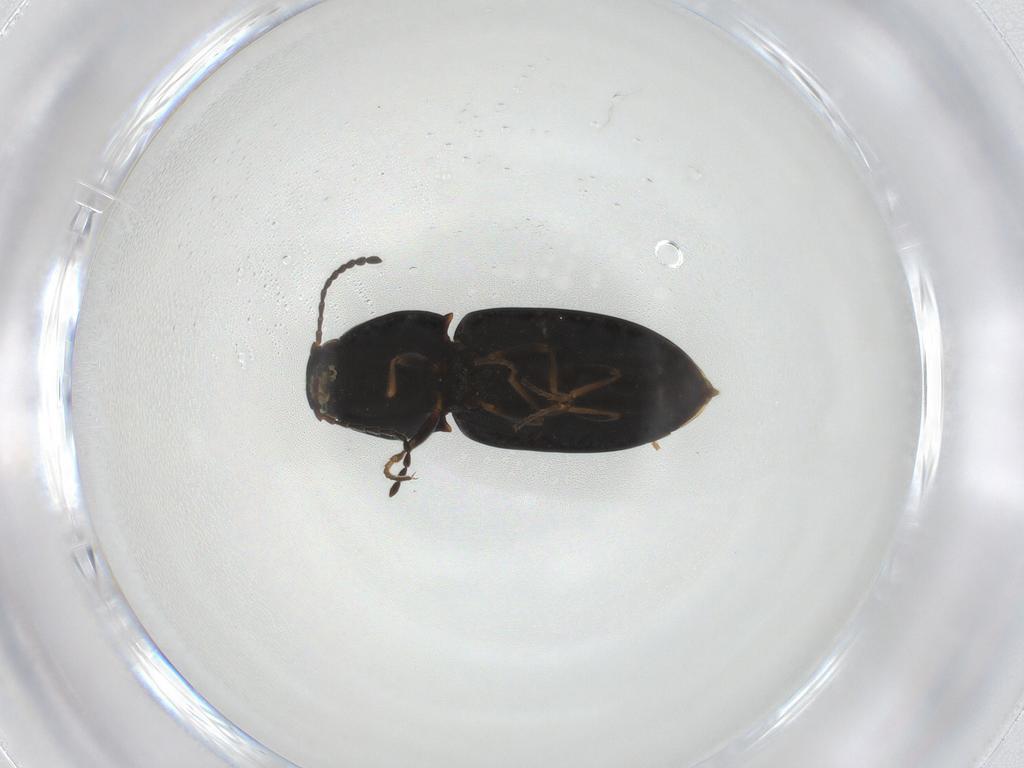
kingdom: Animalia
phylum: Arthropoda
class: Insecta
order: Coleoptera
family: Elateridae
